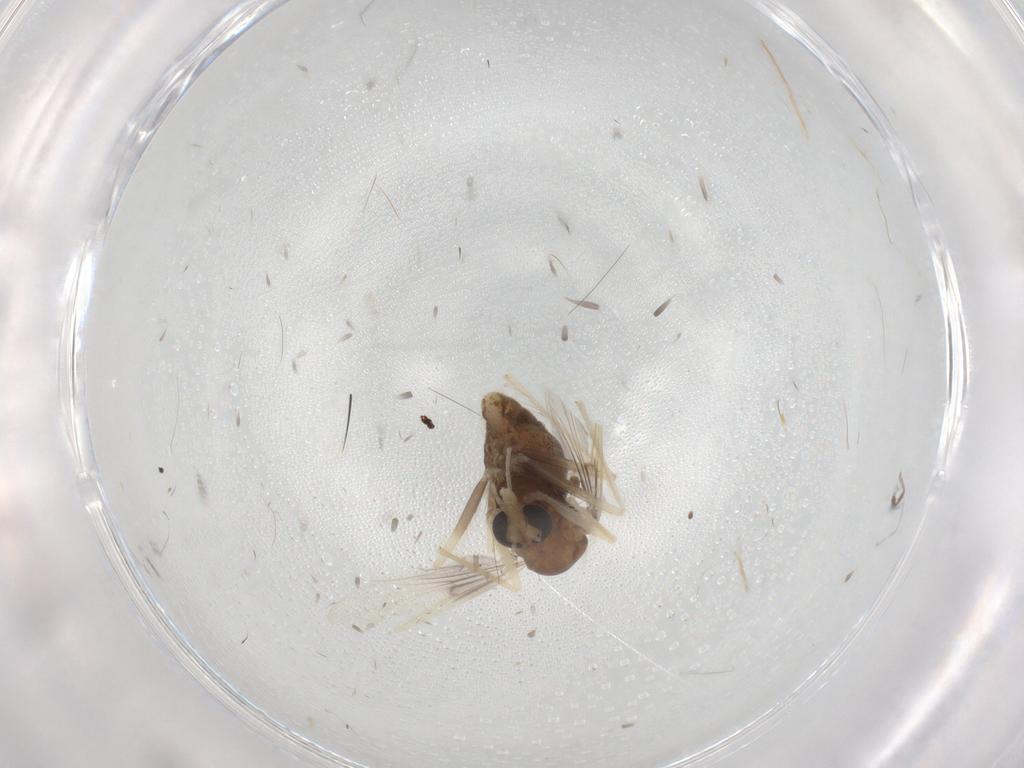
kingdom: Animalia
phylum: Arthropoda
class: Insecta
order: Diptera
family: Chironomidae
